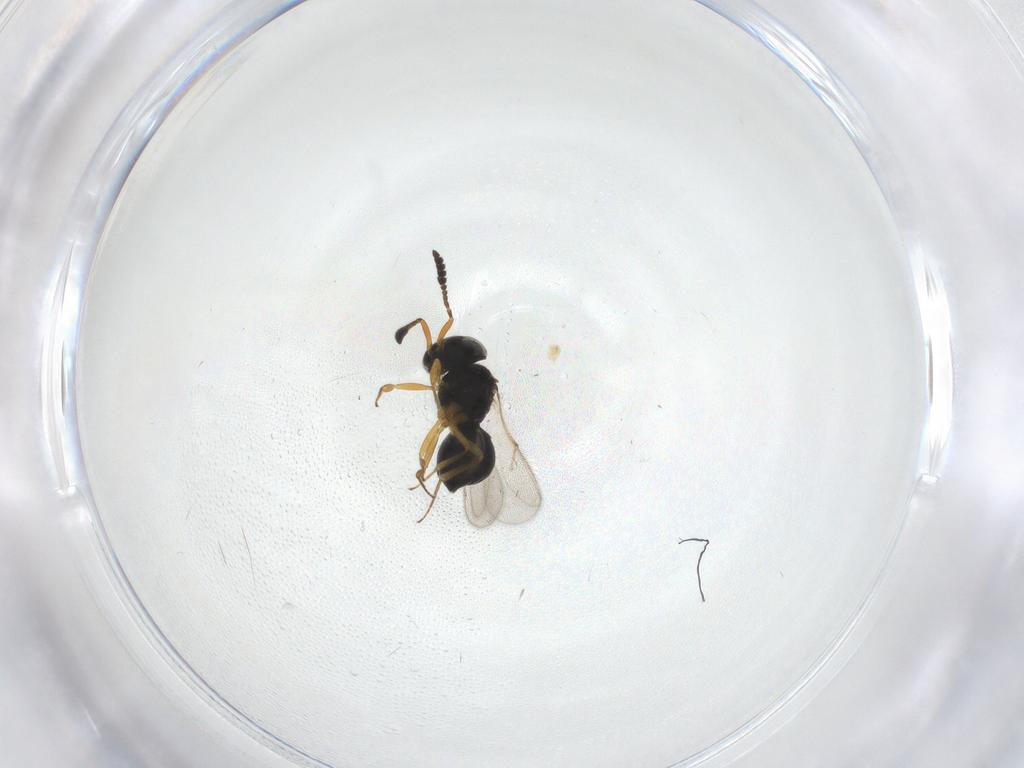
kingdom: Animalia
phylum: Arthropoda
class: Insecta
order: Hymenoptera
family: Scelionidae
